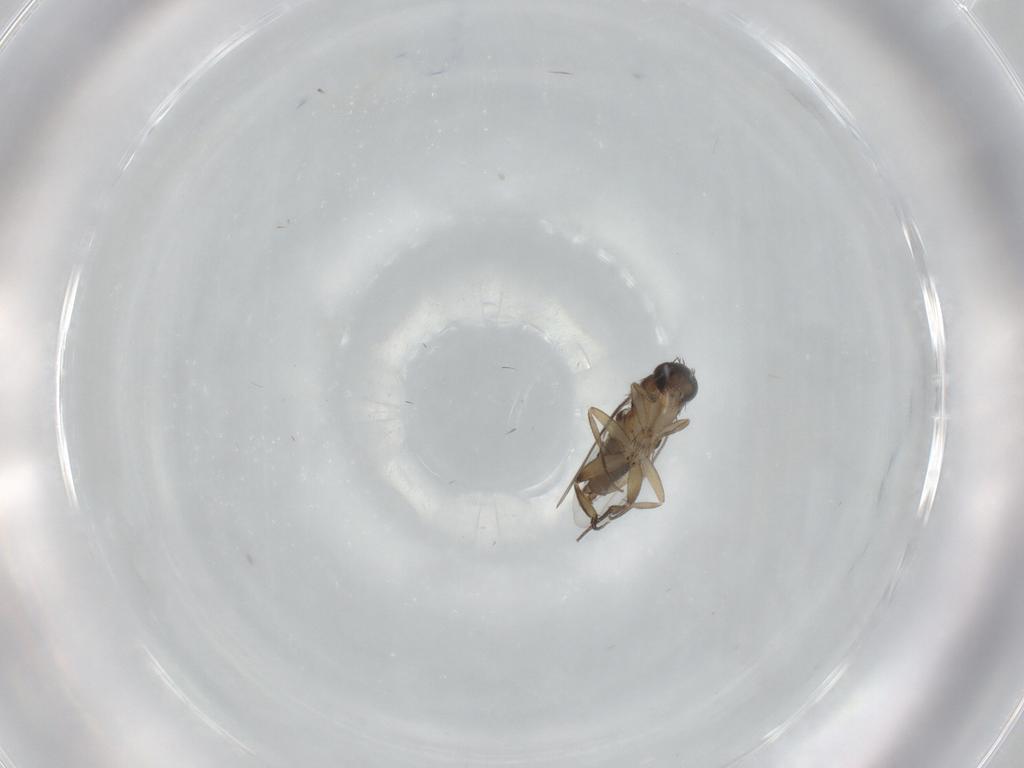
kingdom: Animalia
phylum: Arthropoda
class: Insecta
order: Diptera
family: Phoridae
